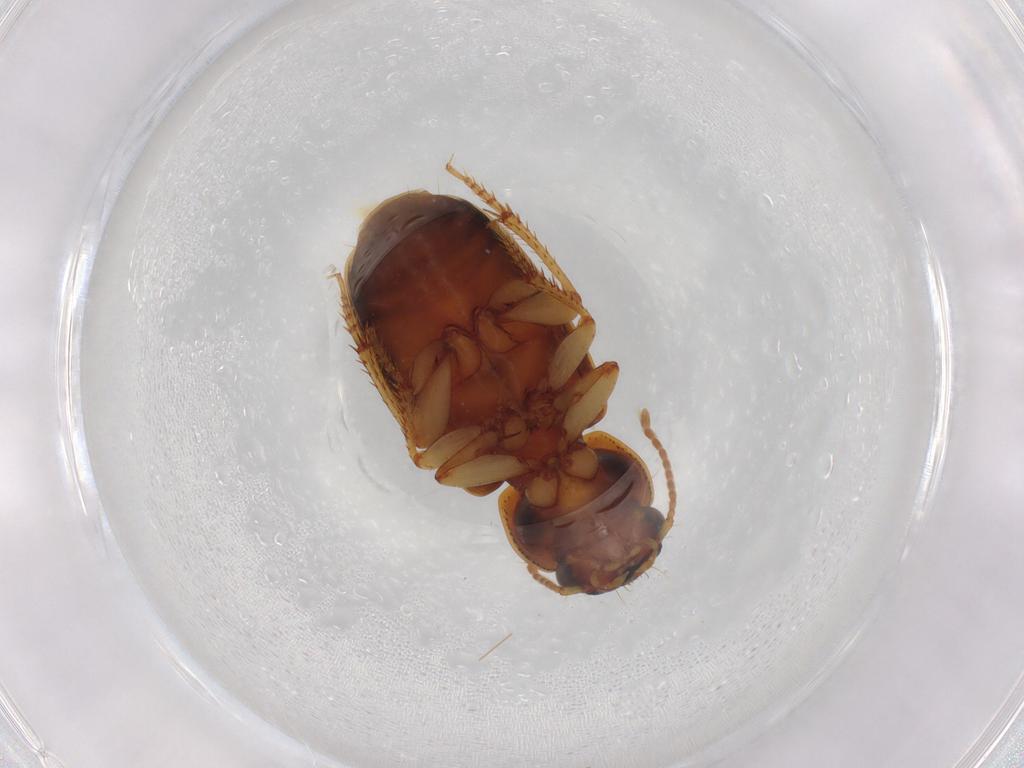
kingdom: Animalia
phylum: Arthropoda
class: Insecta
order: Coleoptera
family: Carabidae
